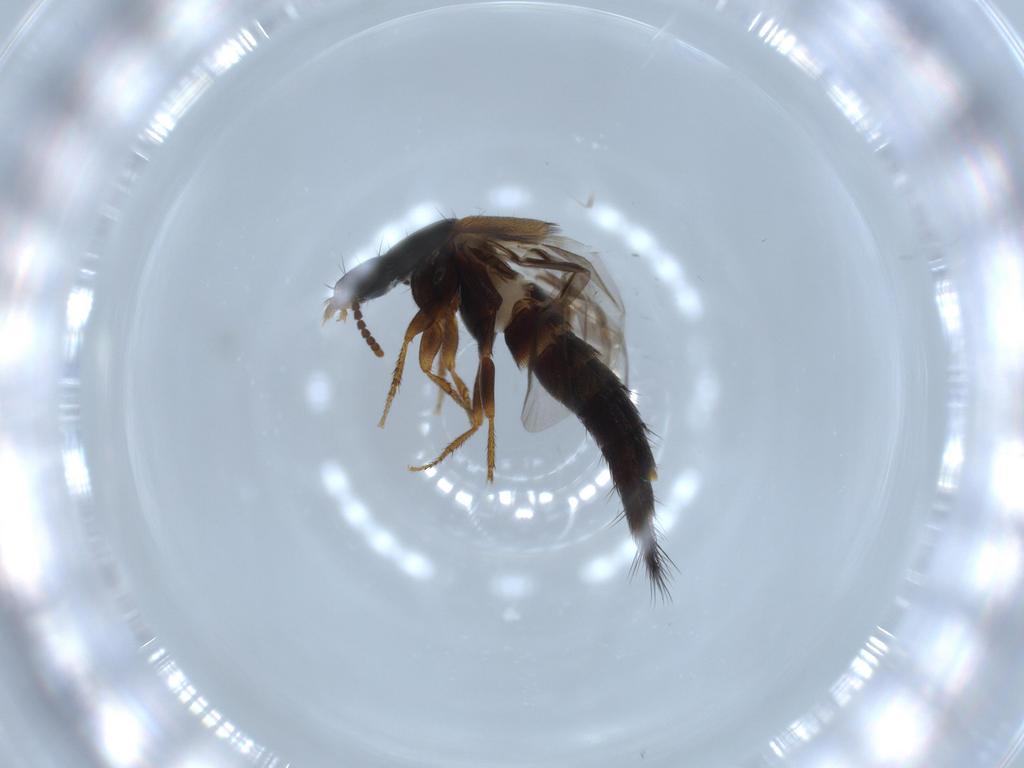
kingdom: Animalia
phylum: Arthropoda
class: Insecta
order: Coleoptera
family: Staphylinidae
